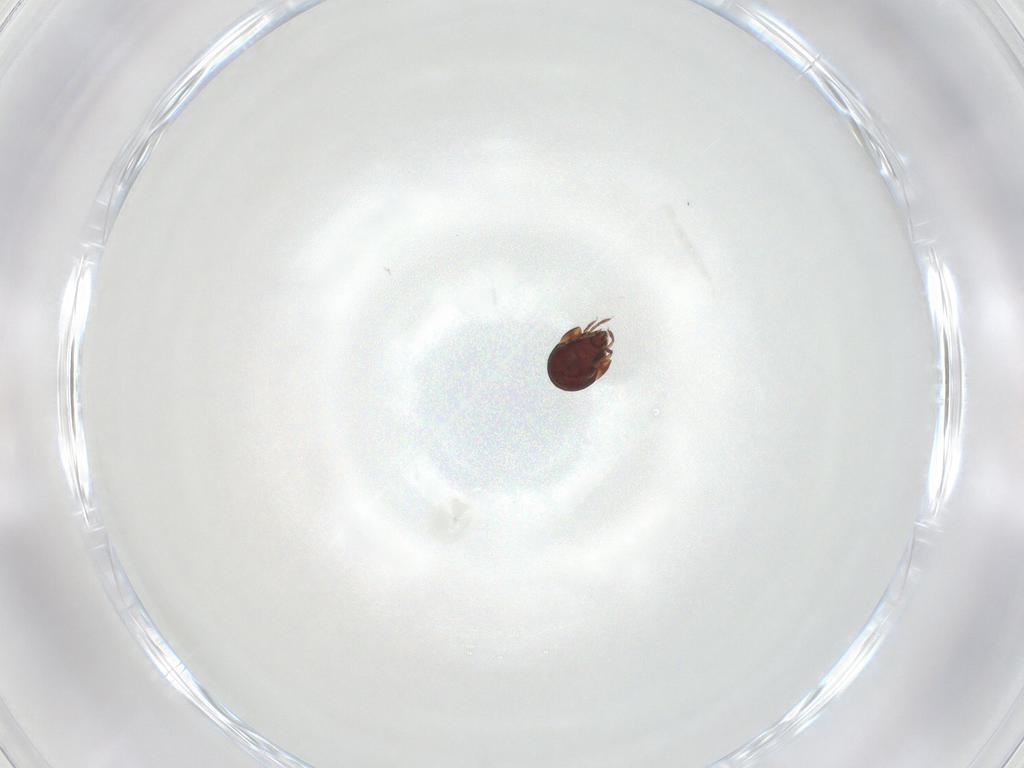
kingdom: Animalia
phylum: Arthropoda
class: Arachnida
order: Sarcoptiformes
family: Humerobatidae
